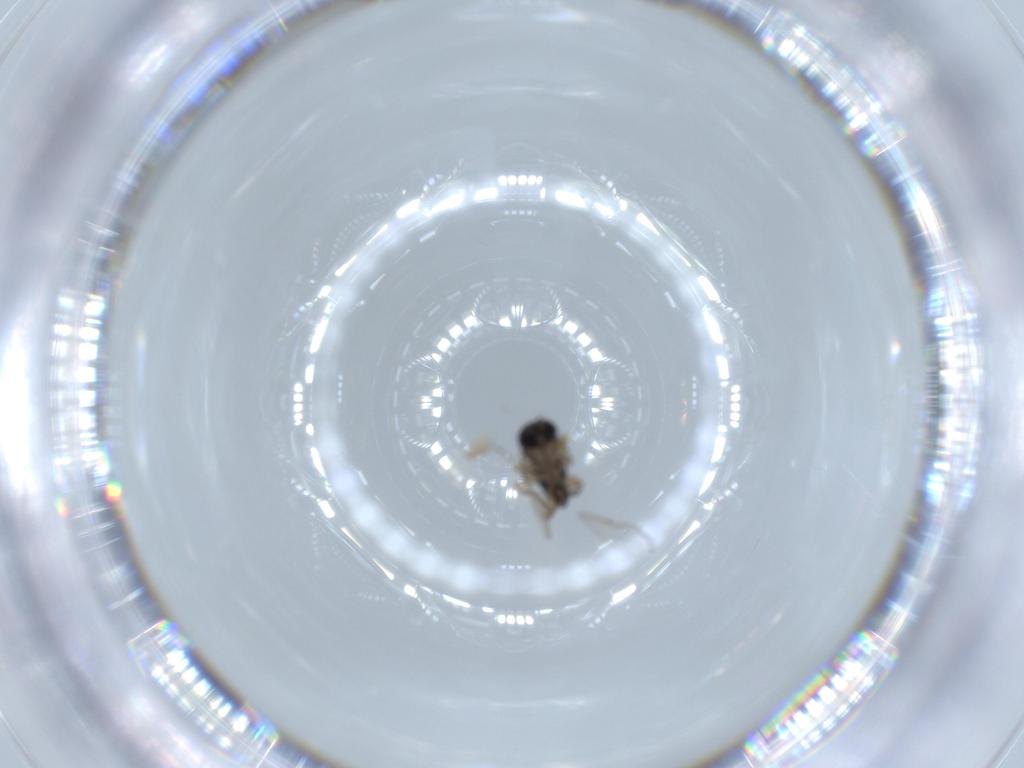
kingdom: Animalia
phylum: Arthropoda
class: Insecta
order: Diptera
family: Phoridae
